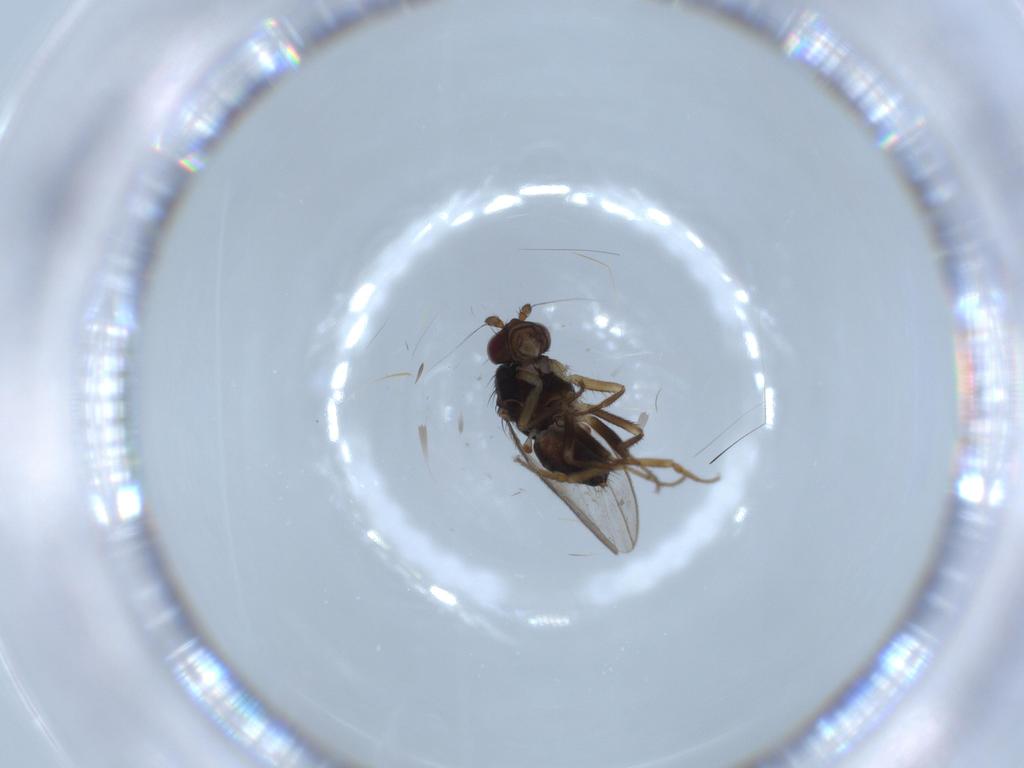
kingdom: Animalia
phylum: Arthropoda
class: Insecta
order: Diptera
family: Sphaeroceridae
